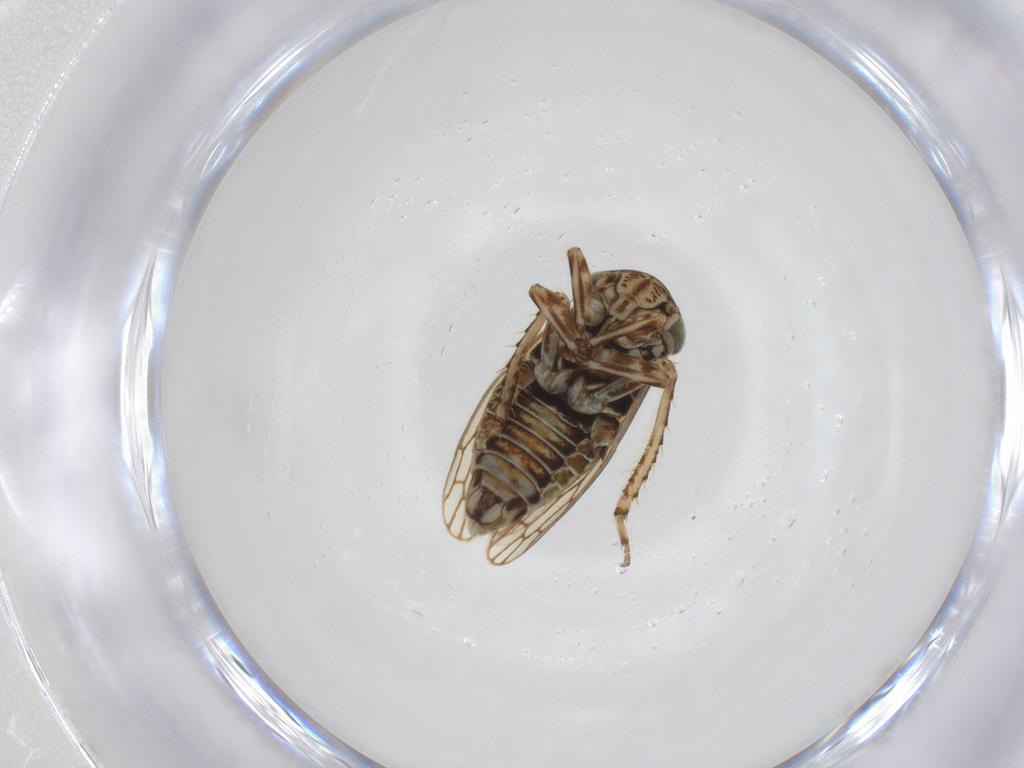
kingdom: Animalia
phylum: Arthropoda
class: Insecta
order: Hemiptera
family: Cicadellidae
